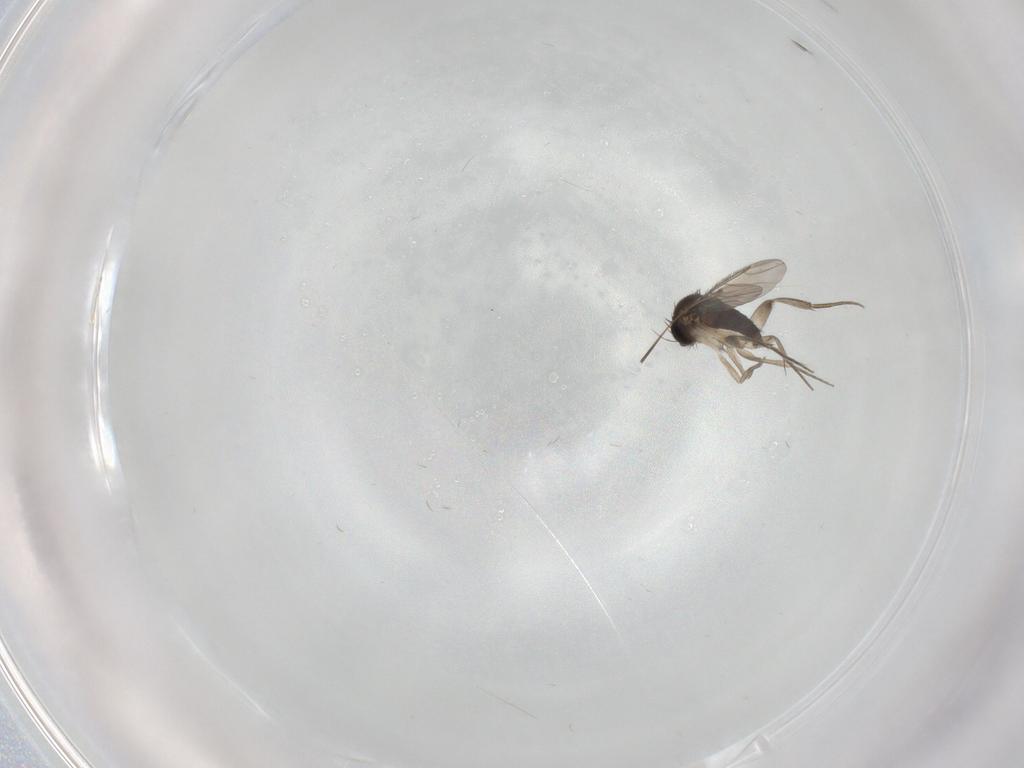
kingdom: Animalia
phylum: Arthropoda
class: Insecta
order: Diptera
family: Phoridae
